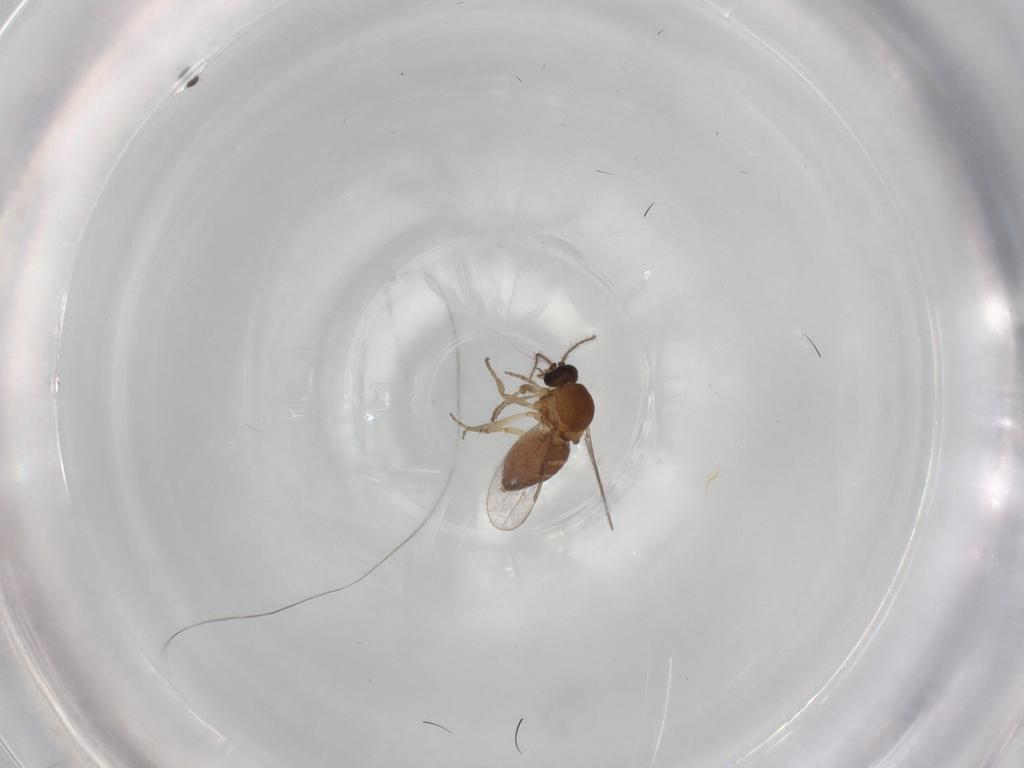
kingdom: Animalia
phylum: Arthropoda
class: Insecta
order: Diptera
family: Dolichopodidae
